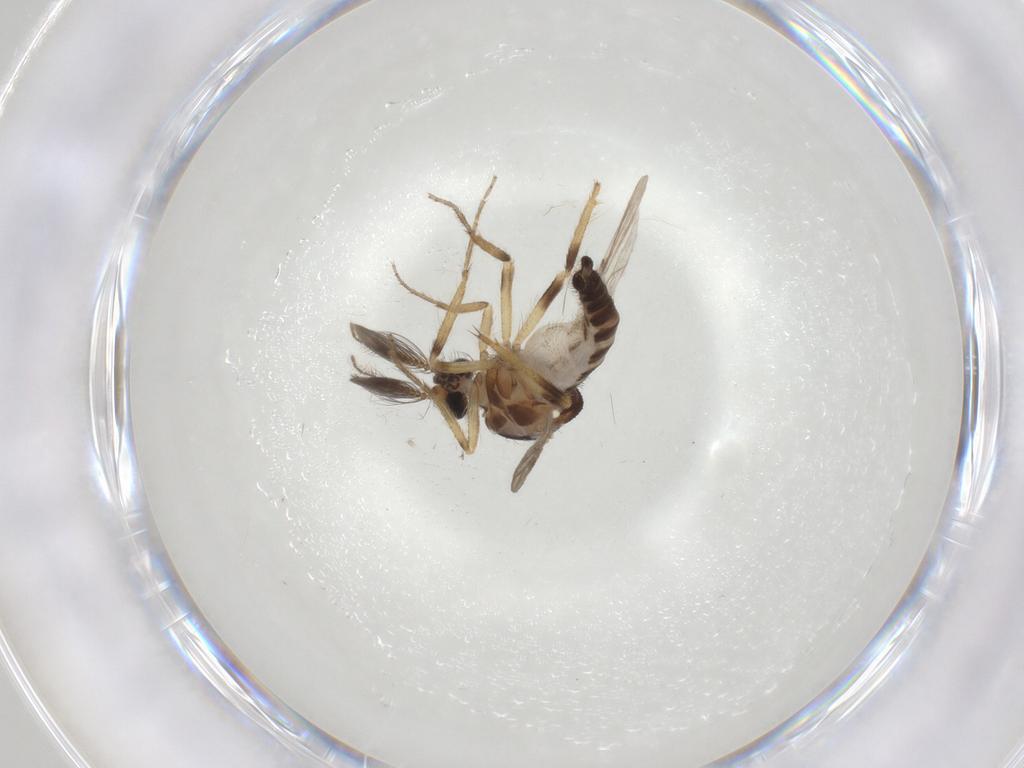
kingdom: Animalia
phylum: Arthropoda
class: Insecta
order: Diptera
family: Ceratopogonidae
